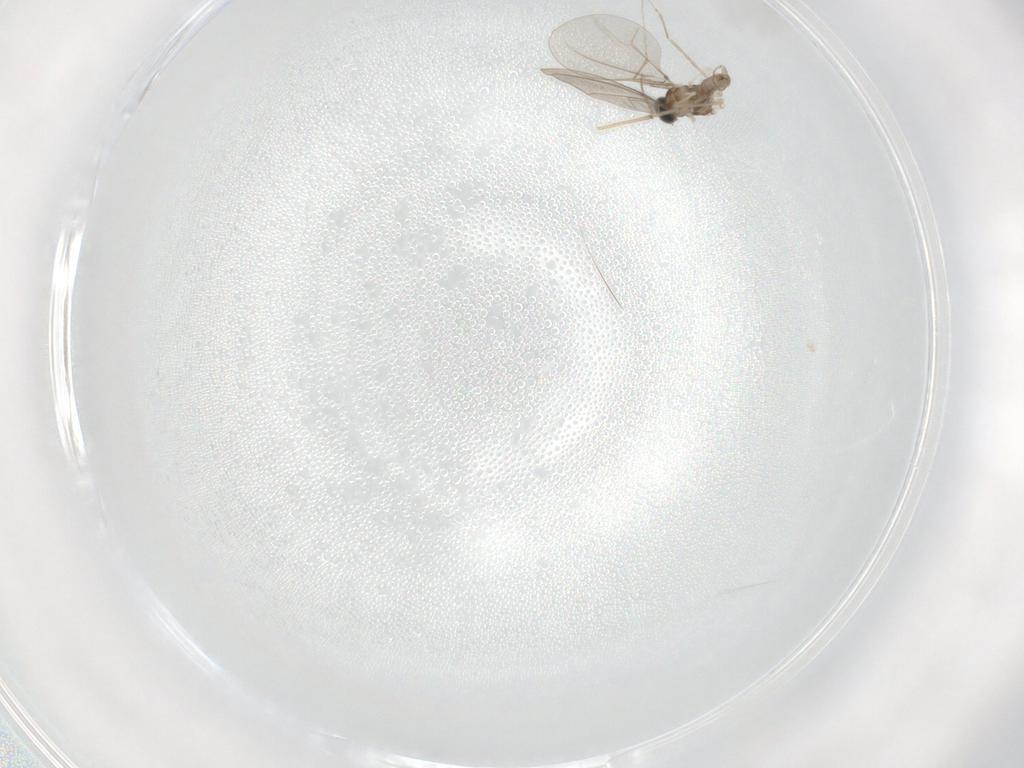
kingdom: Animalia
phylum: Arthropoda
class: Insecta
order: Diptera
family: Cecidomyiidae
